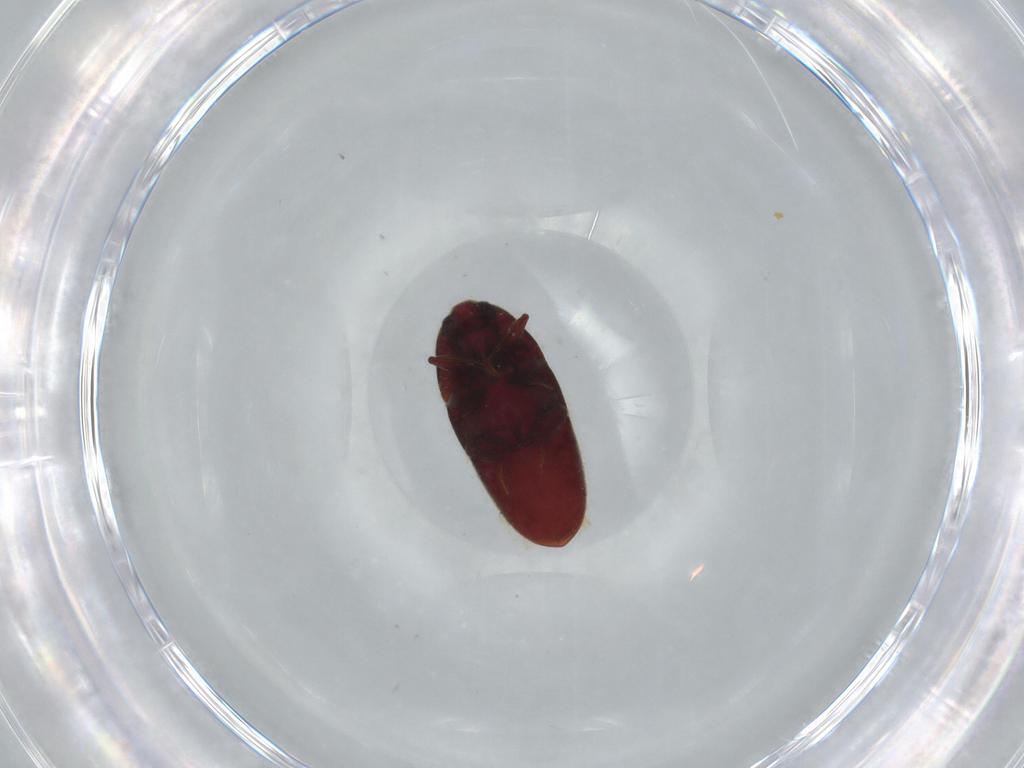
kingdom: Animalia
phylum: Arthropoda
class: Insecta
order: Coleoptera
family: Throscidae
